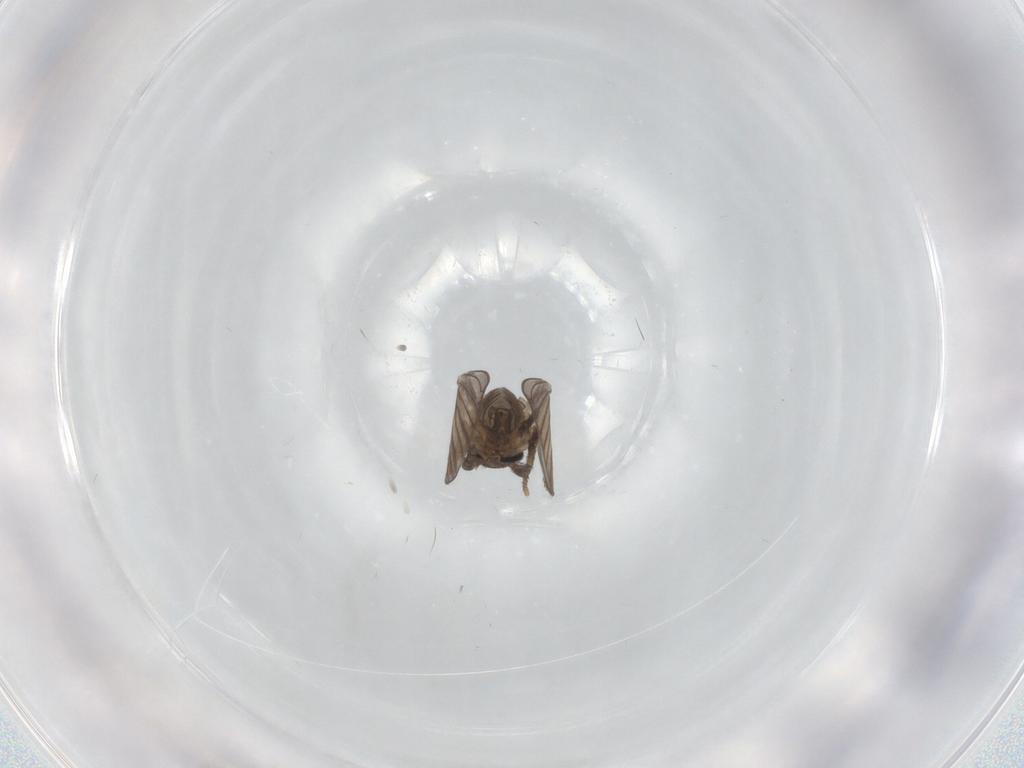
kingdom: Animalia
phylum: Arthropoda
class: Insecta
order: Diptera
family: Psychodidae
